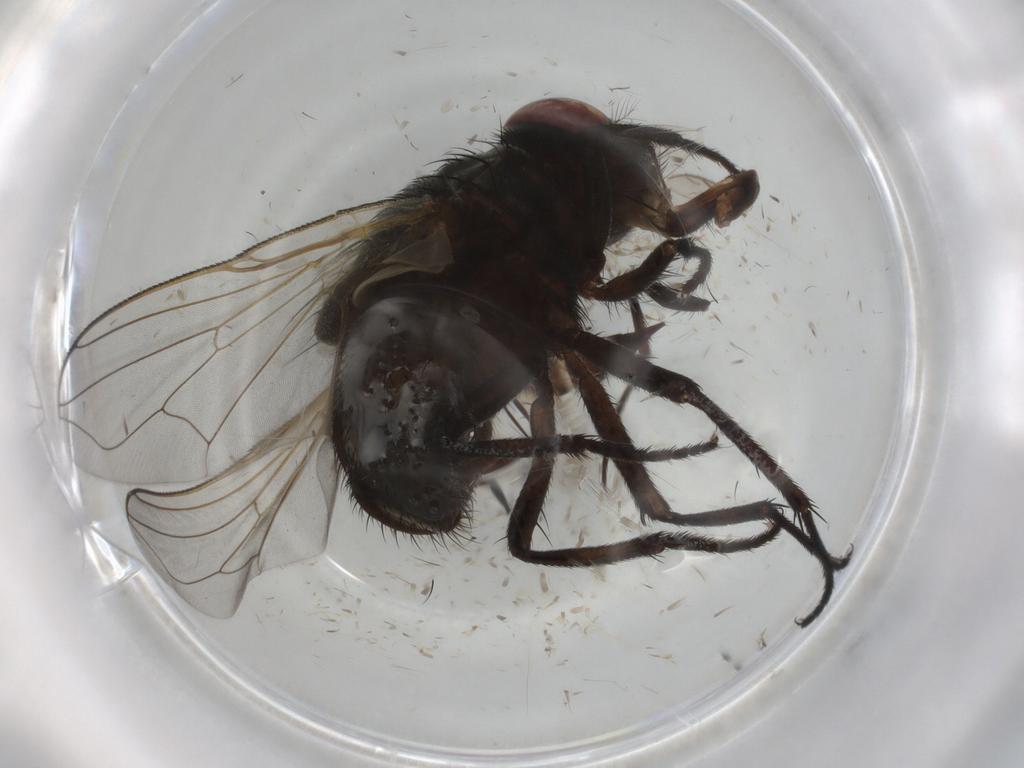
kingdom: Animalia
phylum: Arthropoda
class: Insecta
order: Diptera
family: Muscidae
